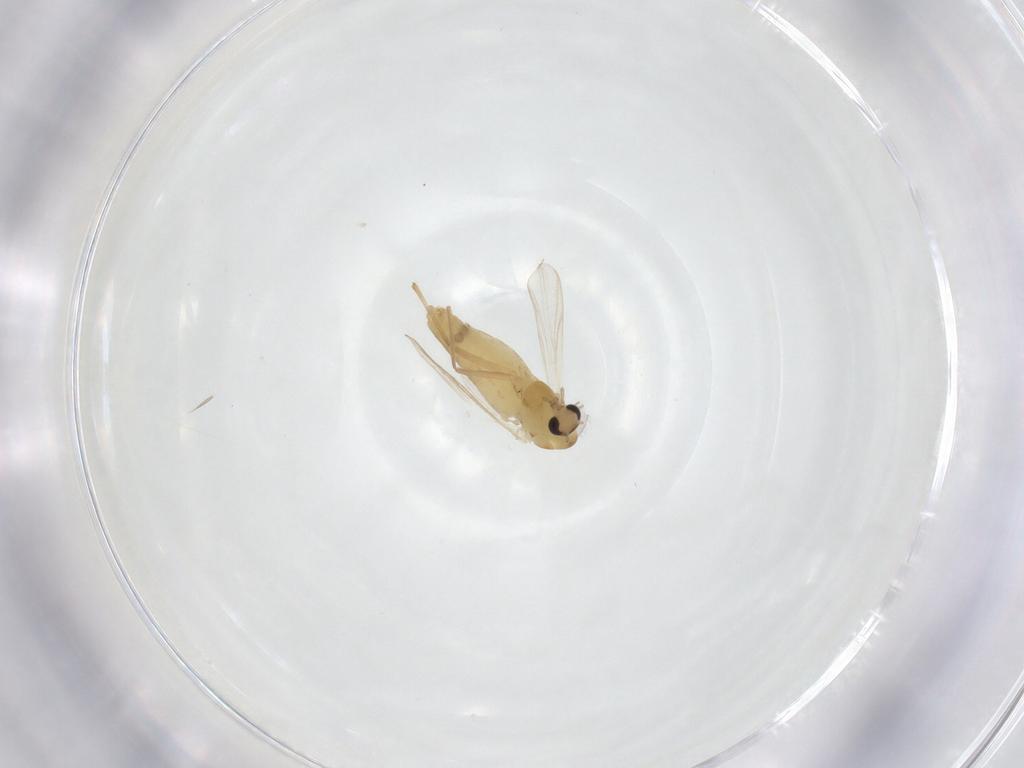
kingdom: Animalia
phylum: Arthropoda
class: Insecta
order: Diptera
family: Chironomidae
